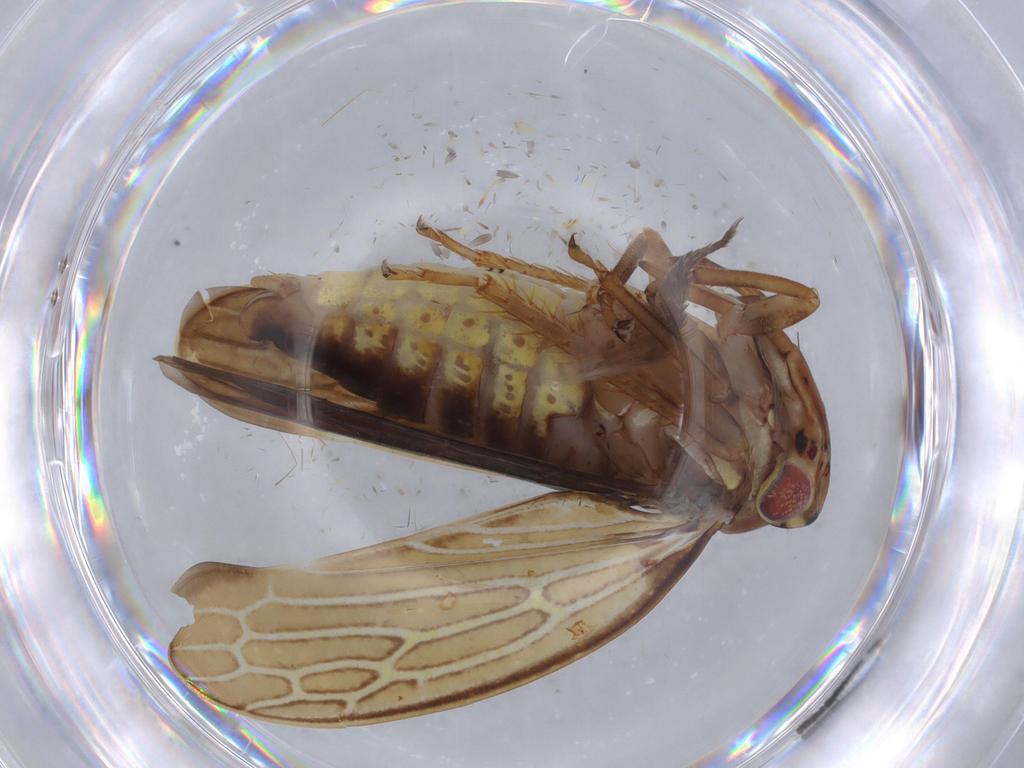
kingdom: Animalia
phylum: Arthropoda
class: Insecta
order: Hemiptera
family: Cicadellidae
